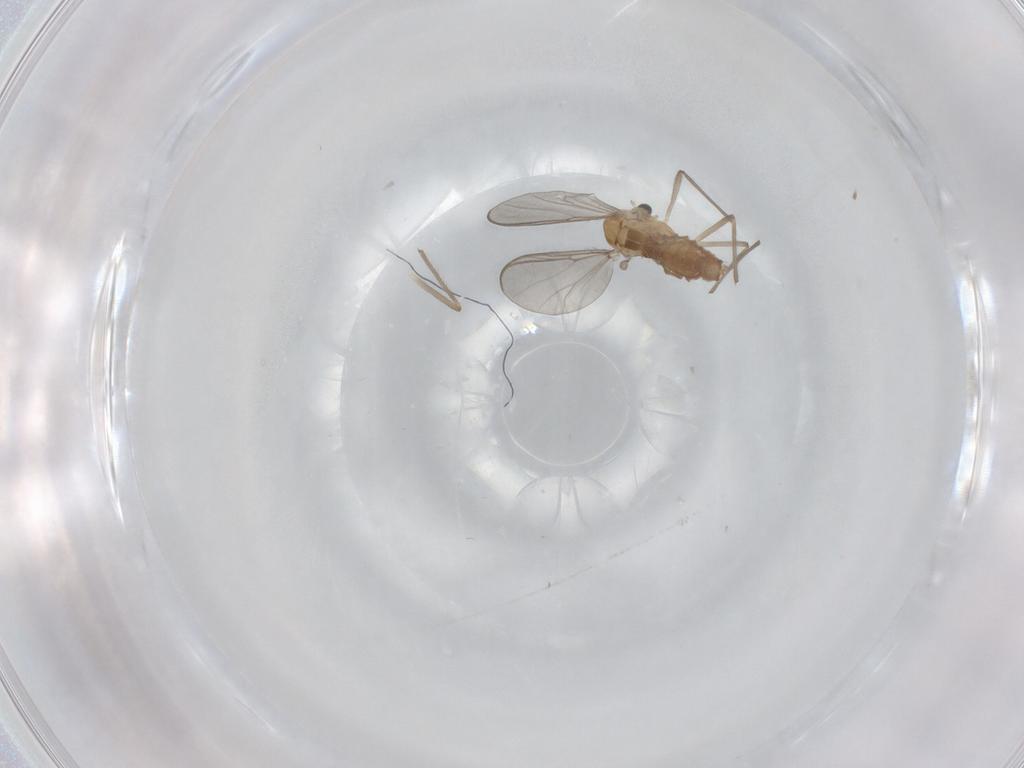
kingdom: Animalia
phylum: Arthropoda
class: Insecta
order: Diptera
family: Chironomidae
